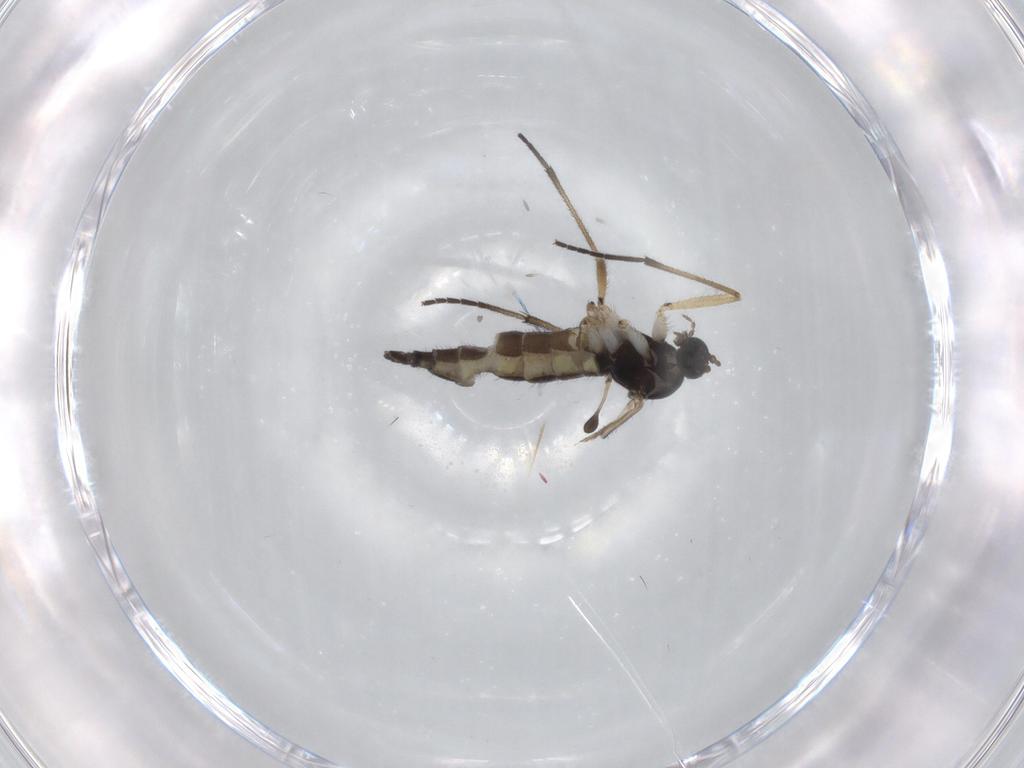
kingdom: Animalia
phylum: Arthropoda
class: Insecta
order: Diptera
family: Sciaridae
